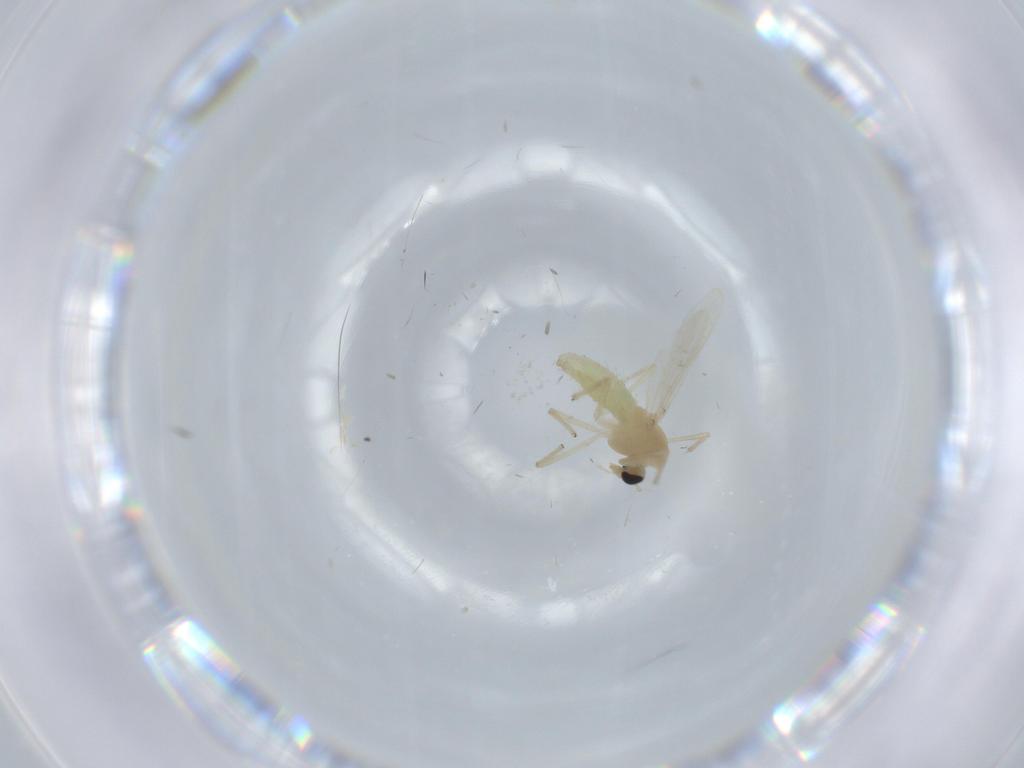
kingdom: Animalia
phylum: Arthropoda
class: Insecta
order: Diptera
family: Chironomidae
